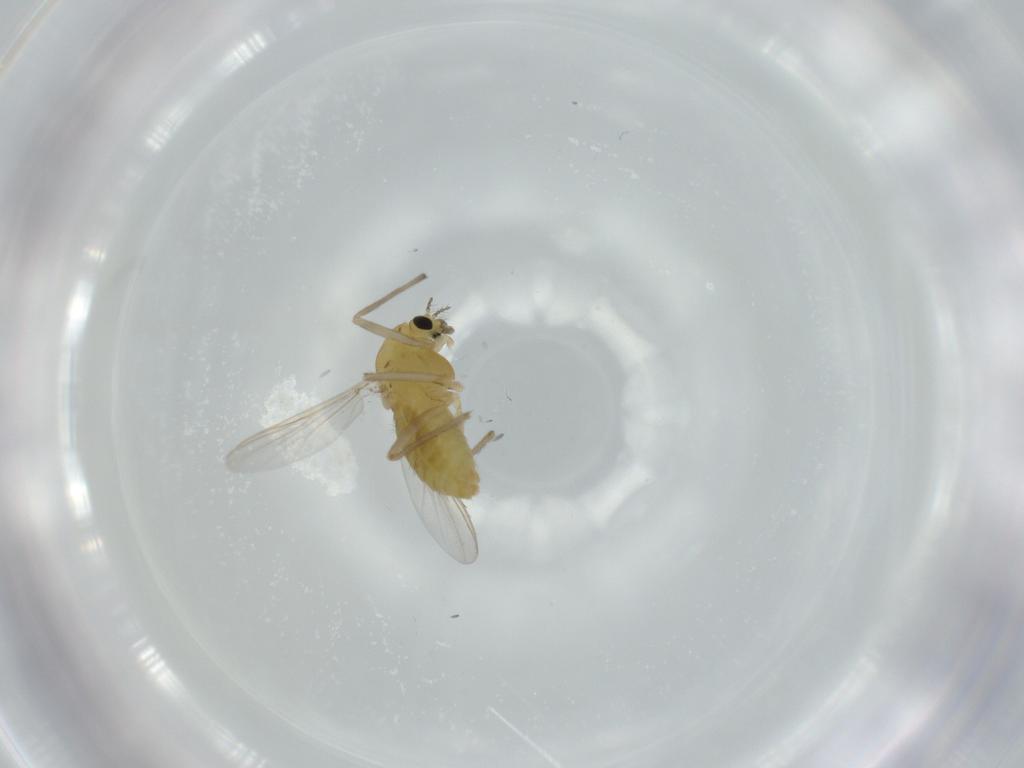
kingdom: Animalia
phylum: Arthropoda
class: Insecta
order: Diptera
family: Chironomidae
